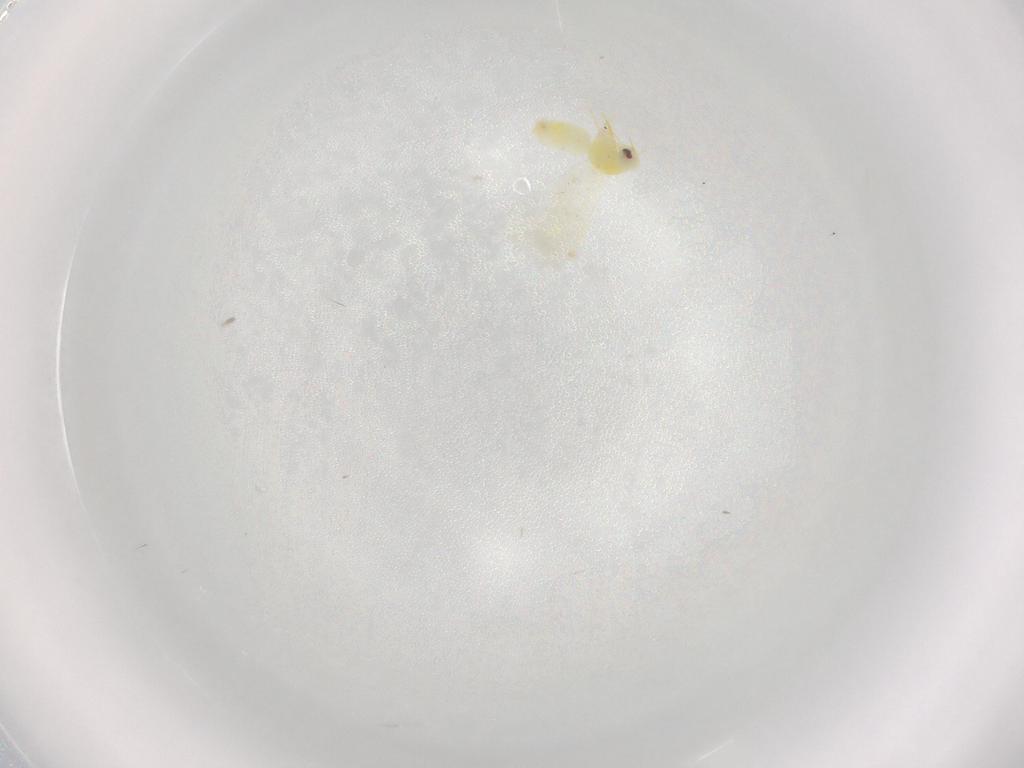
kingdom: Animalia
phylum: Arthropoda
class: Insecta
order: Hemiptera
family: Aleyrodidae
